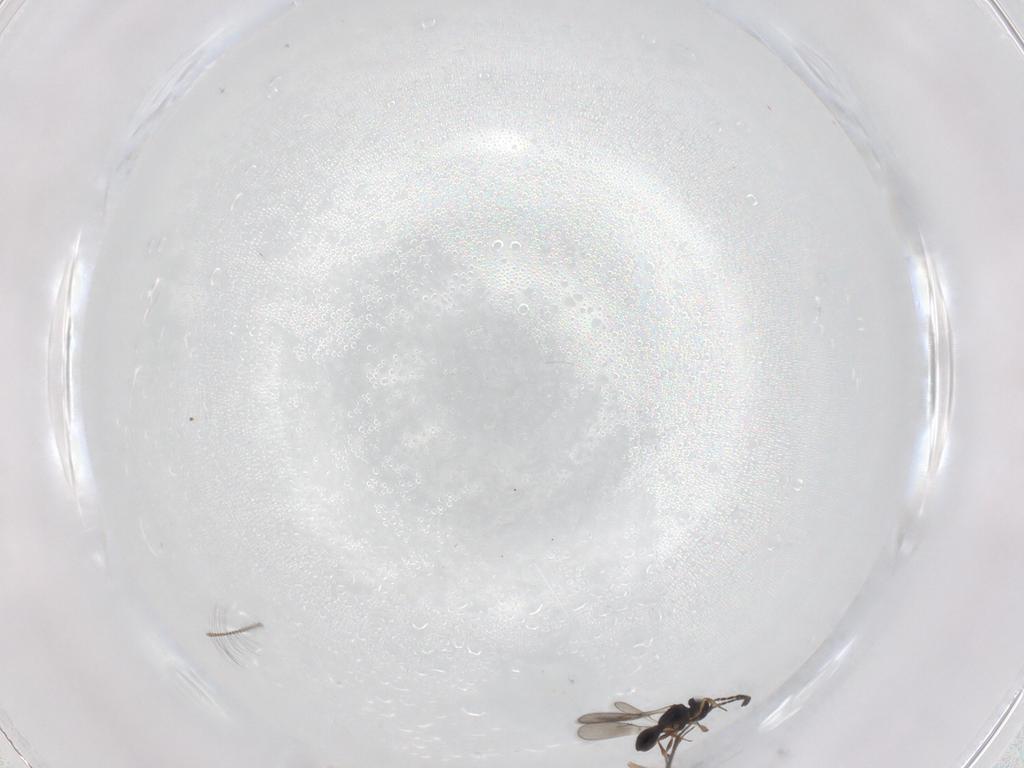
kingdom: Animalia
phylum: Arthropoda
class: Insecta
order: Hymenoptera
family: Scelionidae
